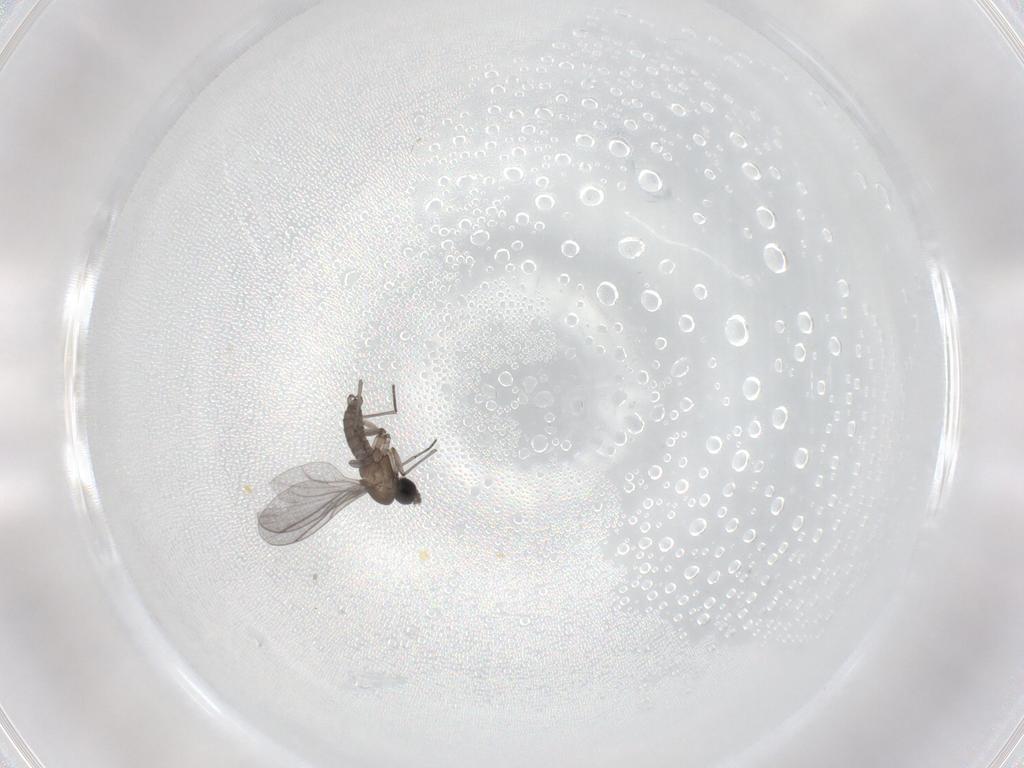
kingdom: Animalia
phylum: Arthropoda
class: Insecta
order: Diptera
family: Sciaridae
